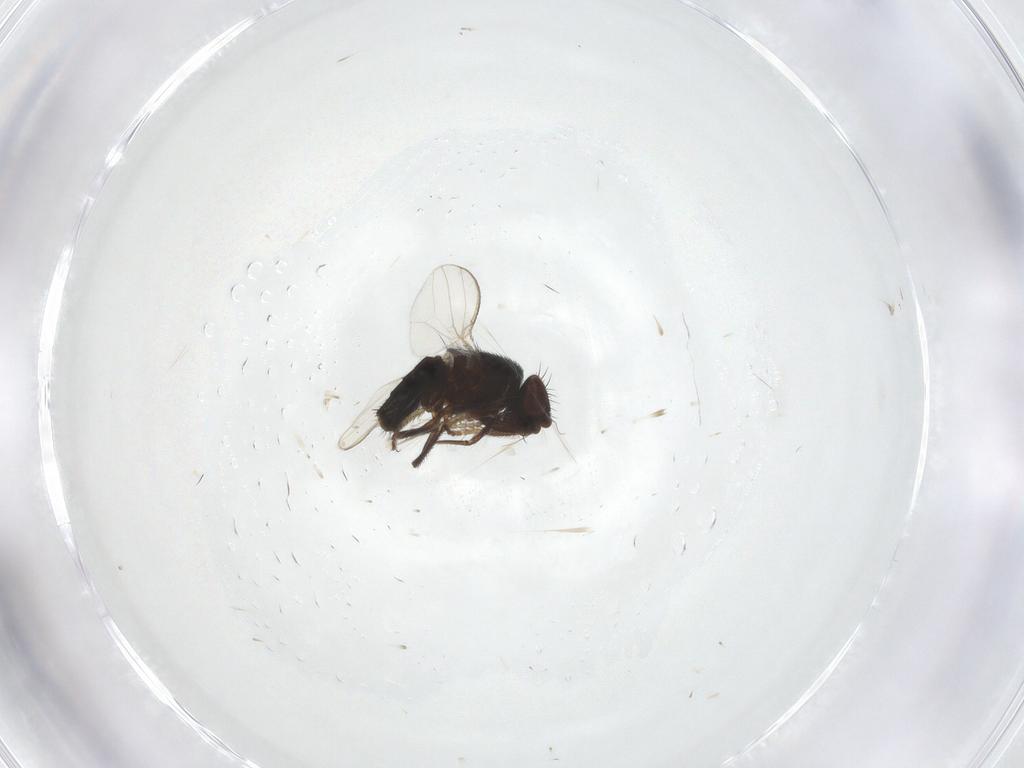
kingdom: Animalia
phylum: Arthropoda
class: Insecta
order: Diptera
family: Milichiidae
